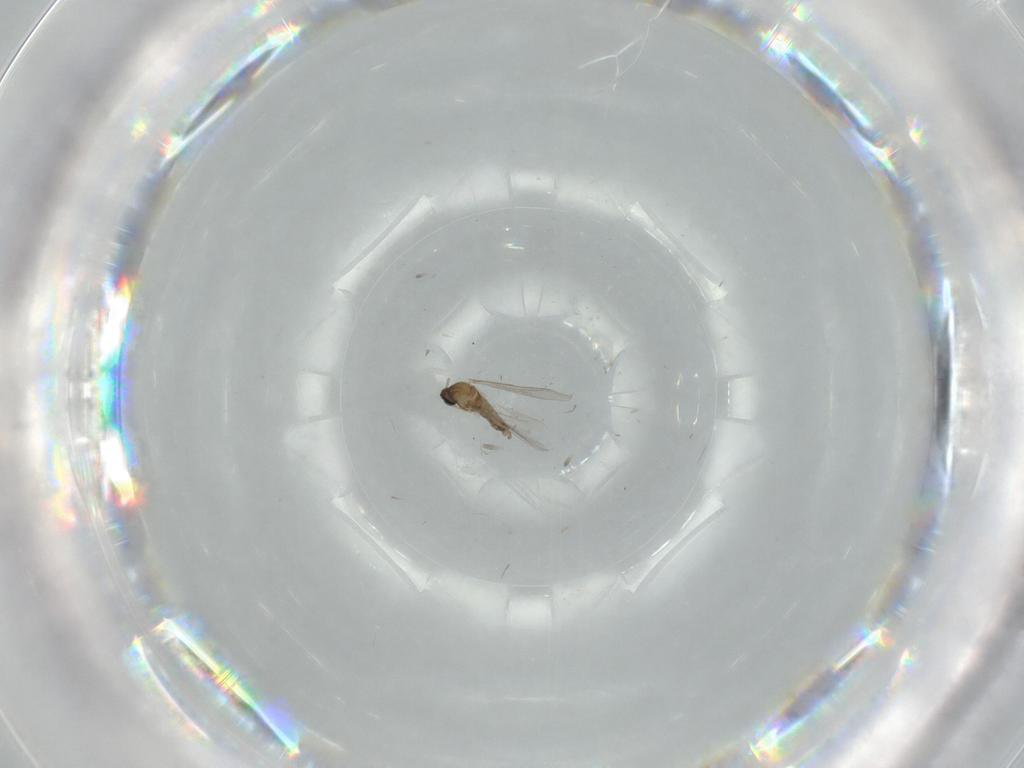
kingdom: Animalia
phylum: Arthropoda
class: Insecta
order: Diptera
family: Cecidomyiidae
